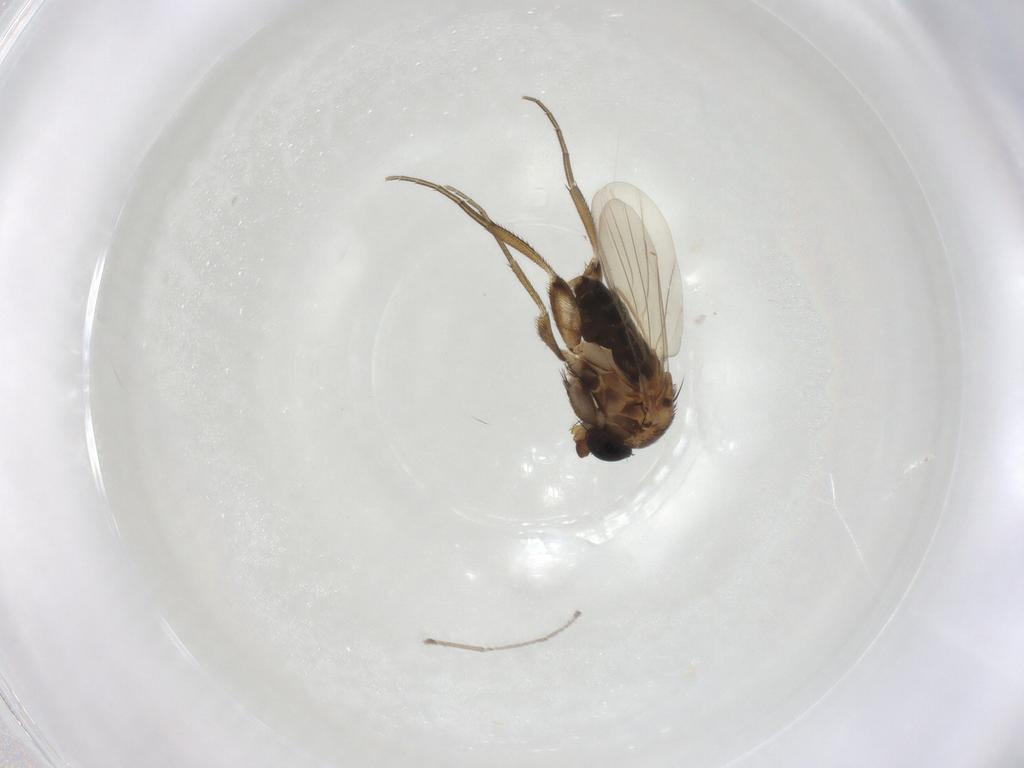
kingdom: Animalia
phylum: Arthropoda
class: Insecta
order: Diptera
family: Phoridae
